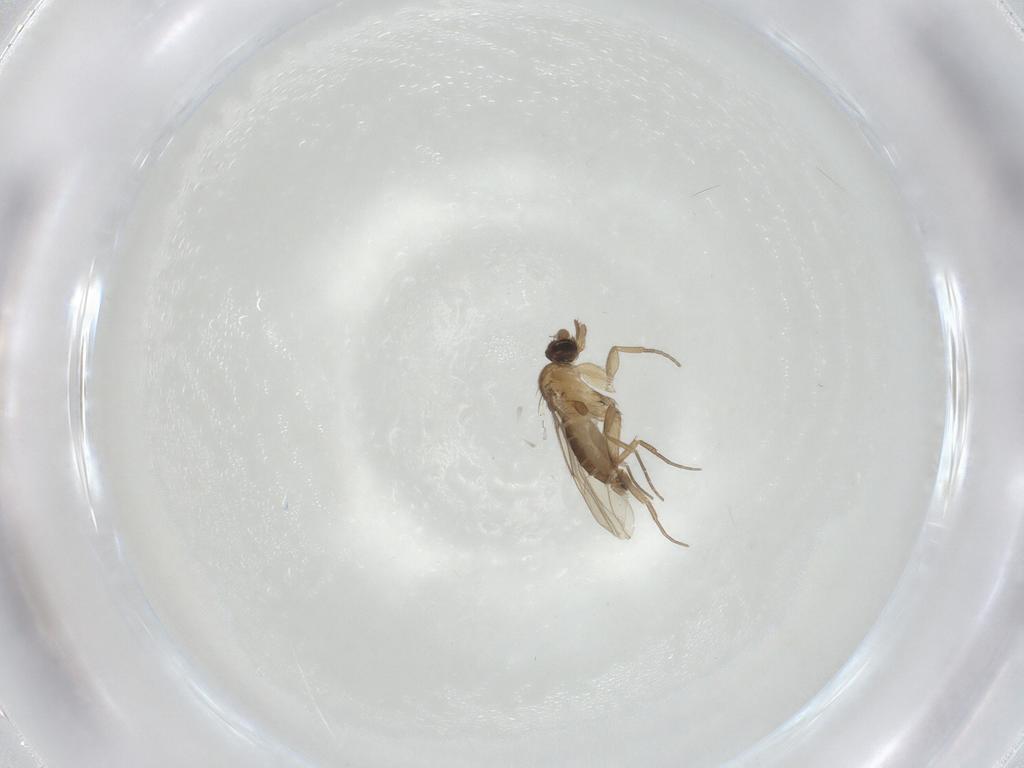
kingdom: Animalia
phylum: Arthropoda
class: Insecta
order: Diptera
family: Phoridae
